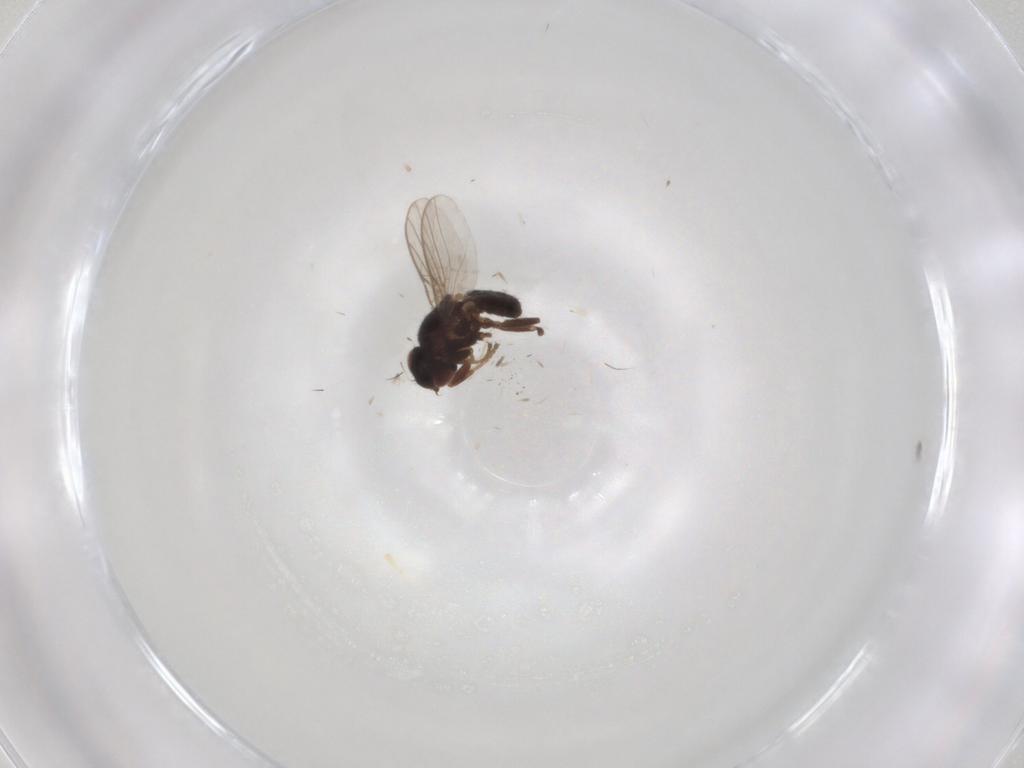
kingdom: Animalia
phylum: Arthropoda
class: Insecta
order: Diptera
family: Chloropidae
